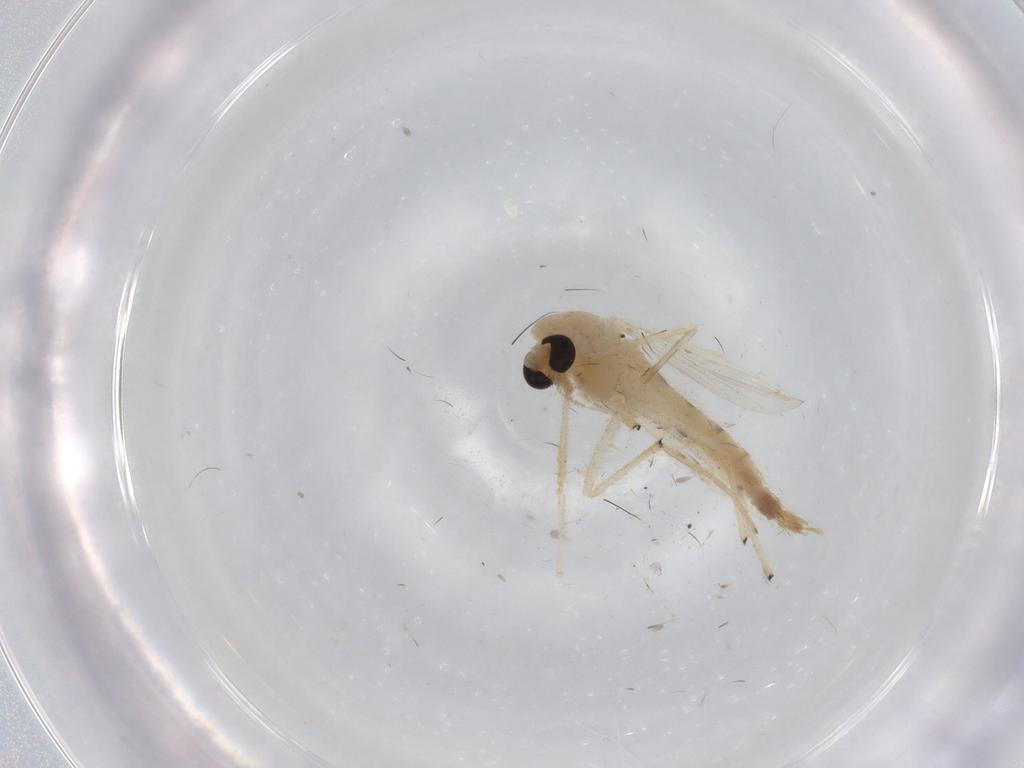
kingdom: Animalia
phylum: Arthropoda
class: Insecta
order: Diptera
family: Chironomidae
